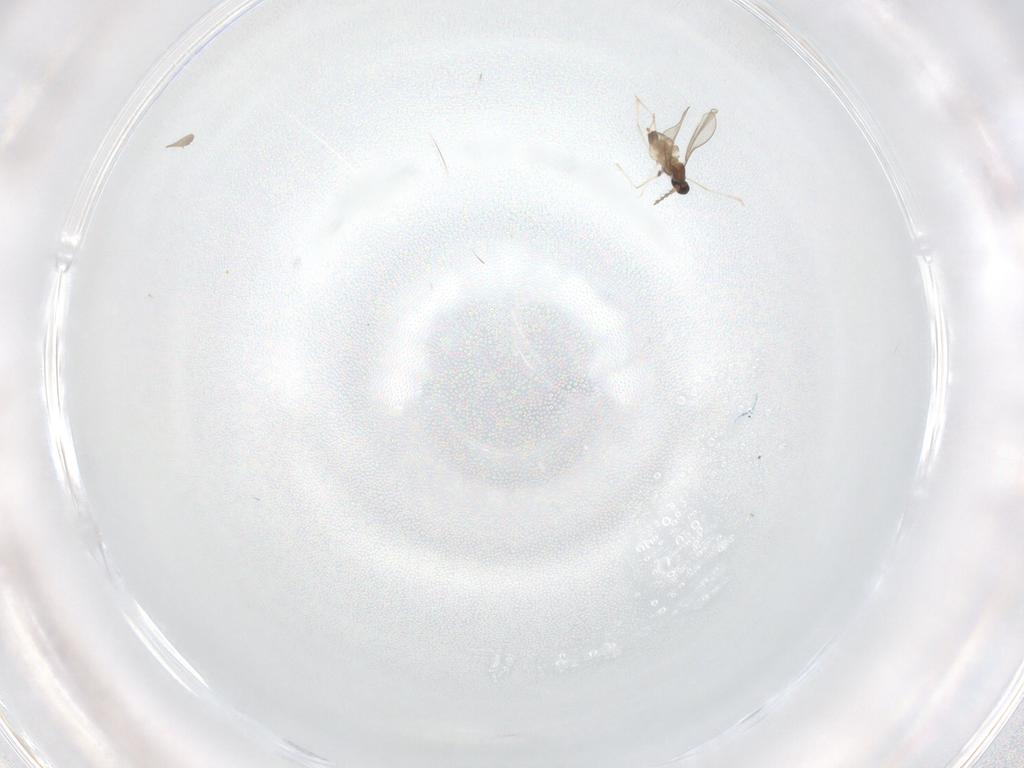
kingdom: Animalia
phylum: Arthropoda
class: Insecta
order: Diptera
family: Cecidomyiidae
